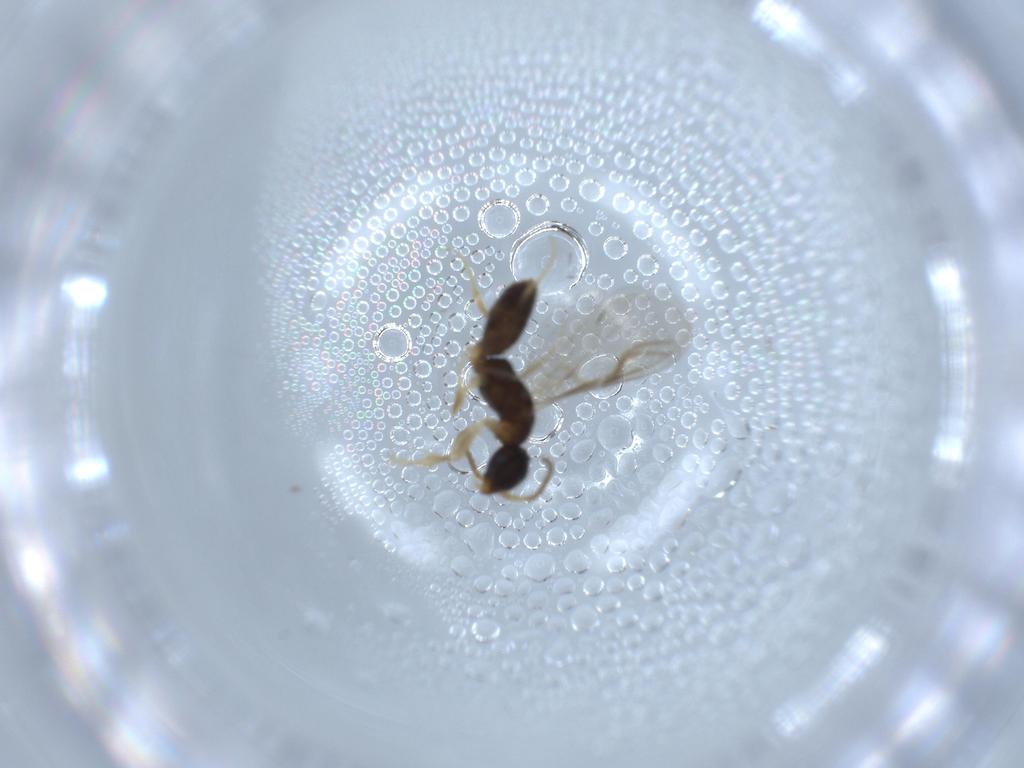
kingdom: Animalia
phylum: Arthropoda
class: Insecta
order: Hymenoptera
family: Bethylidae
